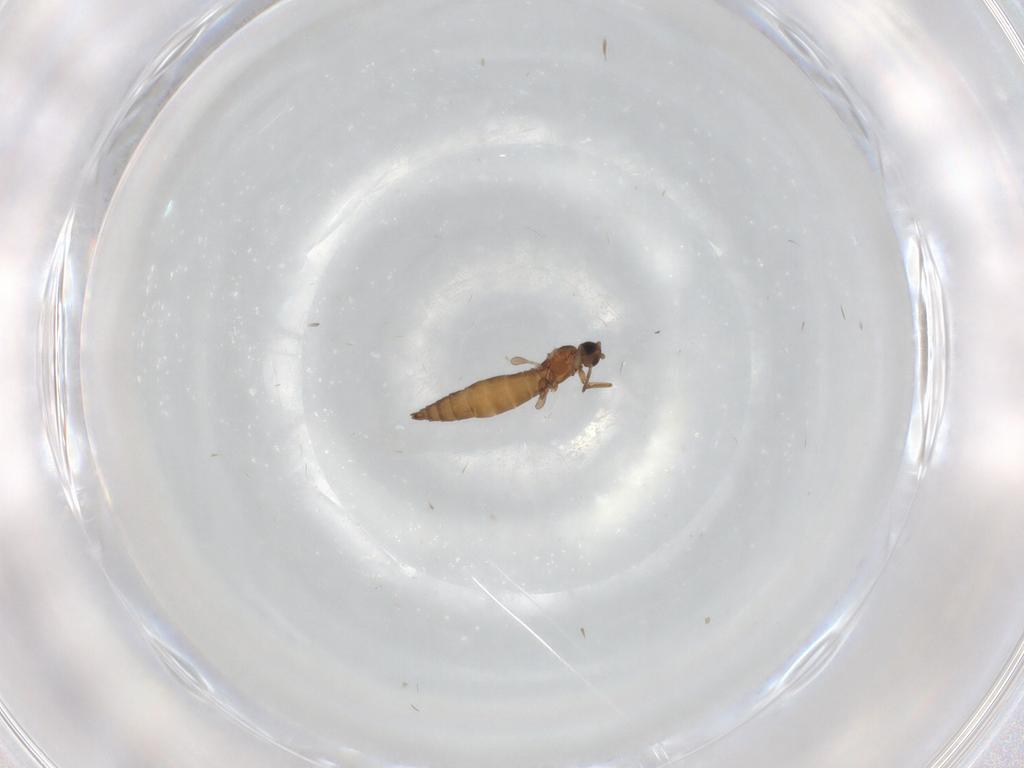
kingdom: Animalia
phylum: Arthropoda
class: Insecta
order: Diptera
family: Sciaridae
